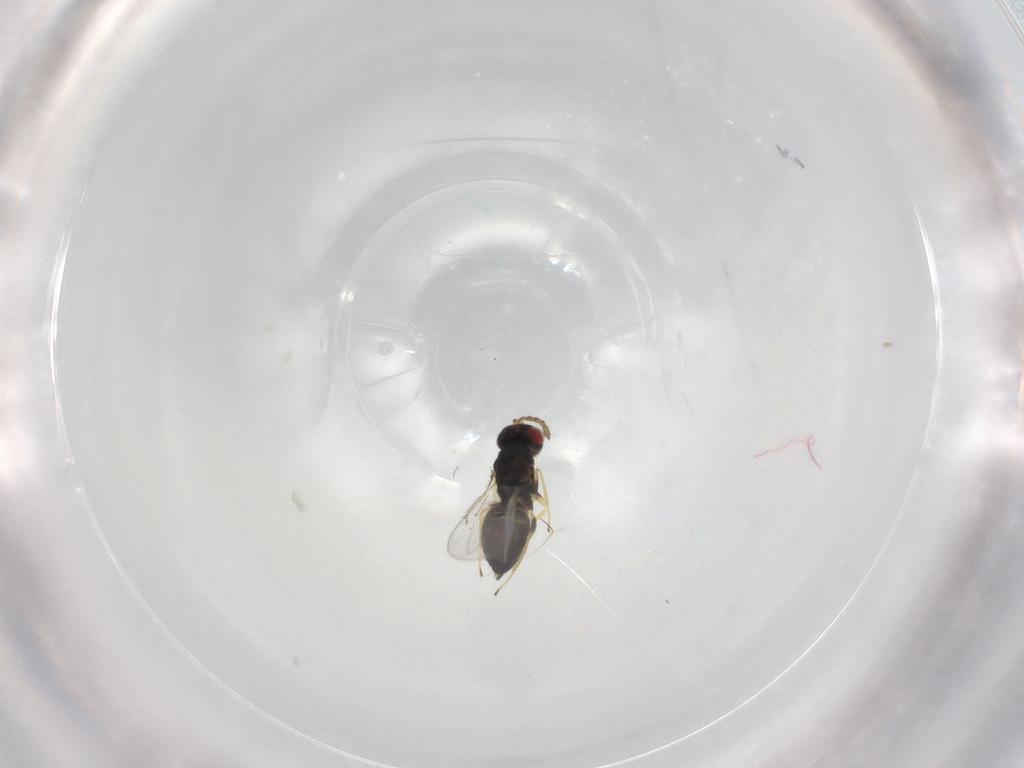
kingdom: Animalia
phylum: Arthropoda
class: Insecta
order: Hymenoptera
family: Eulophidae
